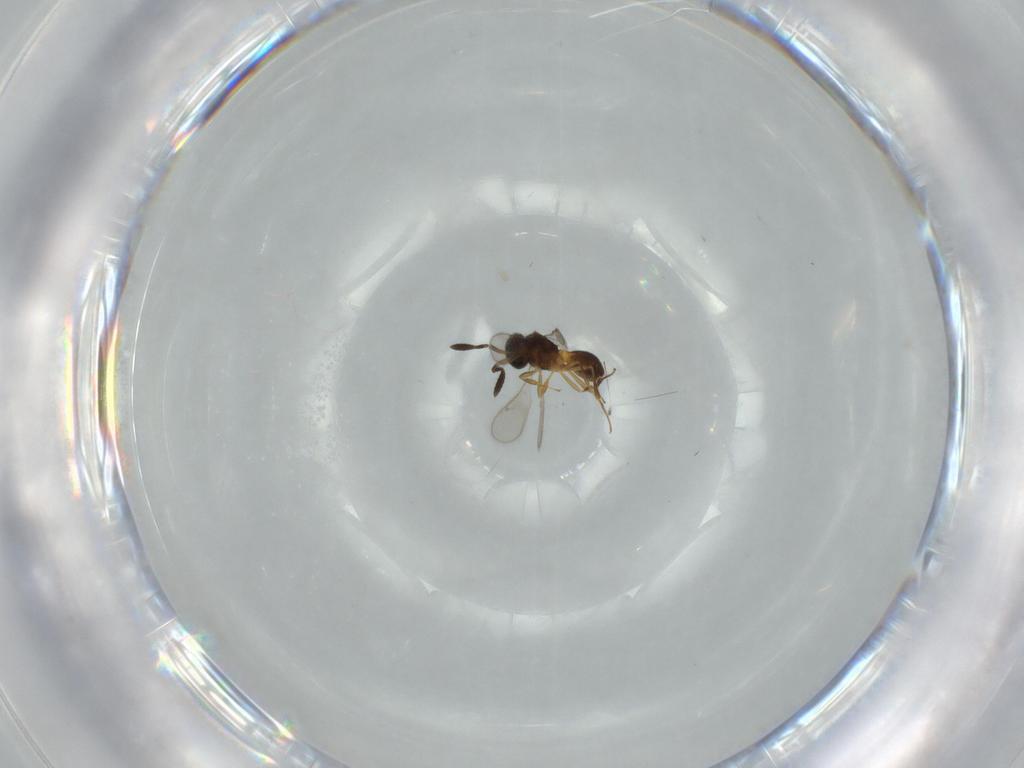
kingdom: Animalia
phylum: Arthropoda
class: Insecta
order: Hymenoptera
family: Scelionidae
